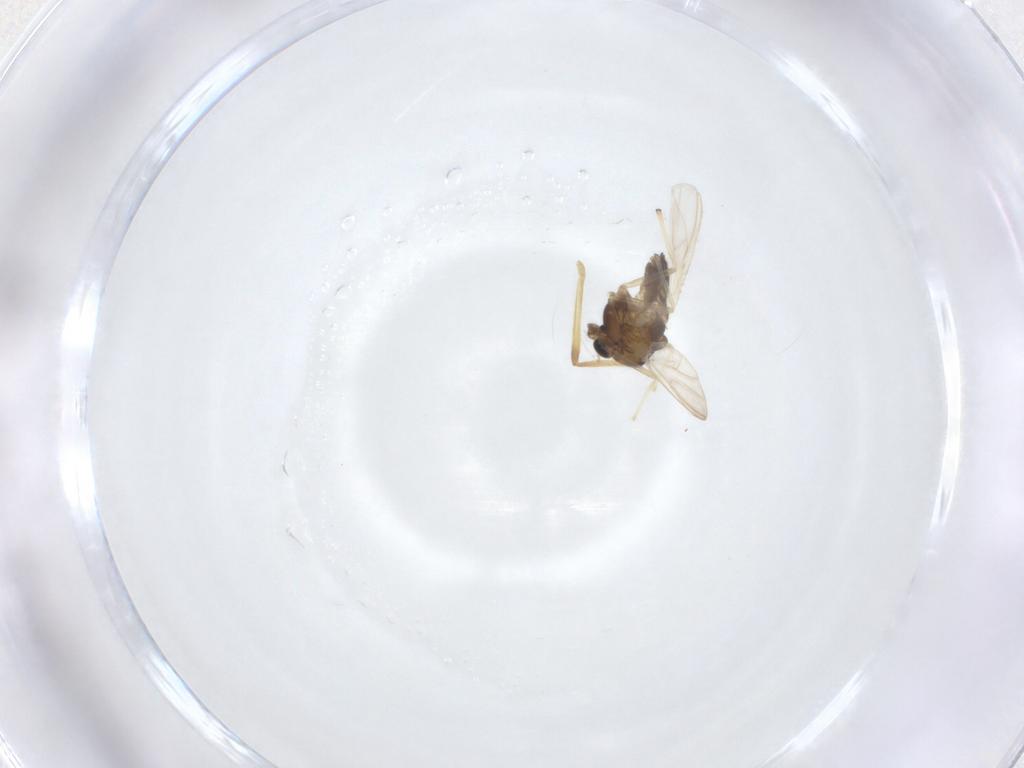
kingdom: Animalia
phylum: Arthropoda
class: Insecta
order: Diptera
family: Chironomidae
